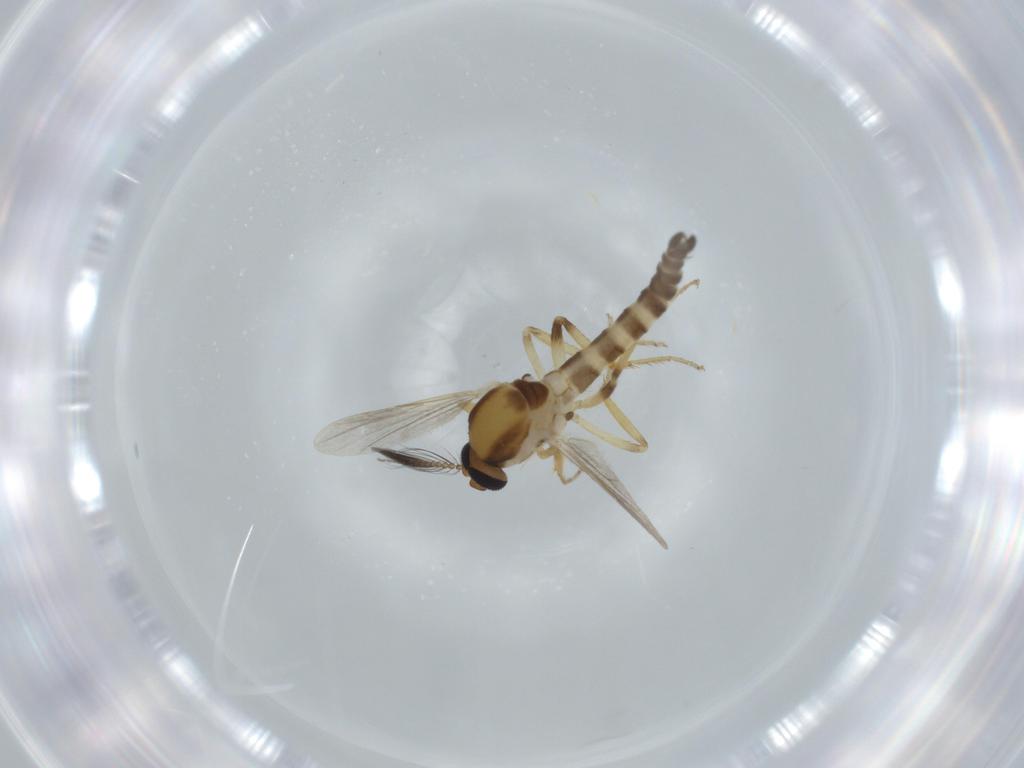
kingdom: Animalia
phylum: Arthropoda
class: Insecta
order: Diptera
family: Ceratopogonidae
